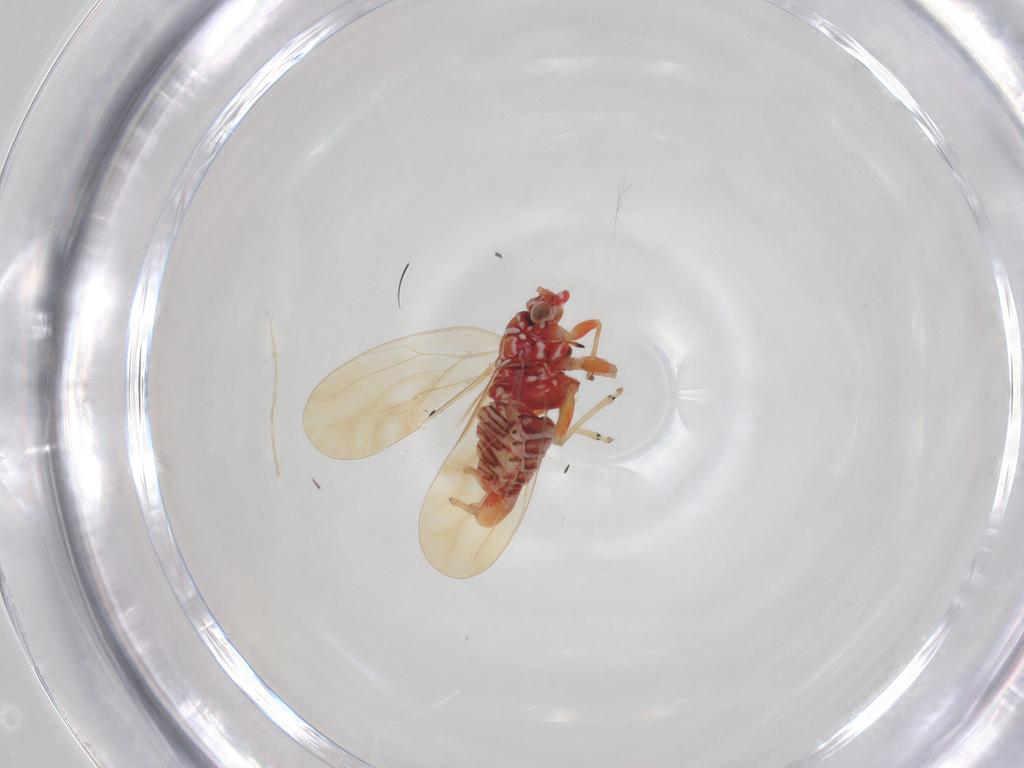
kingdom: Animalia
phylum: Arthropoda
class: Insecta
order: Hemiptera
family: Psyllidae
